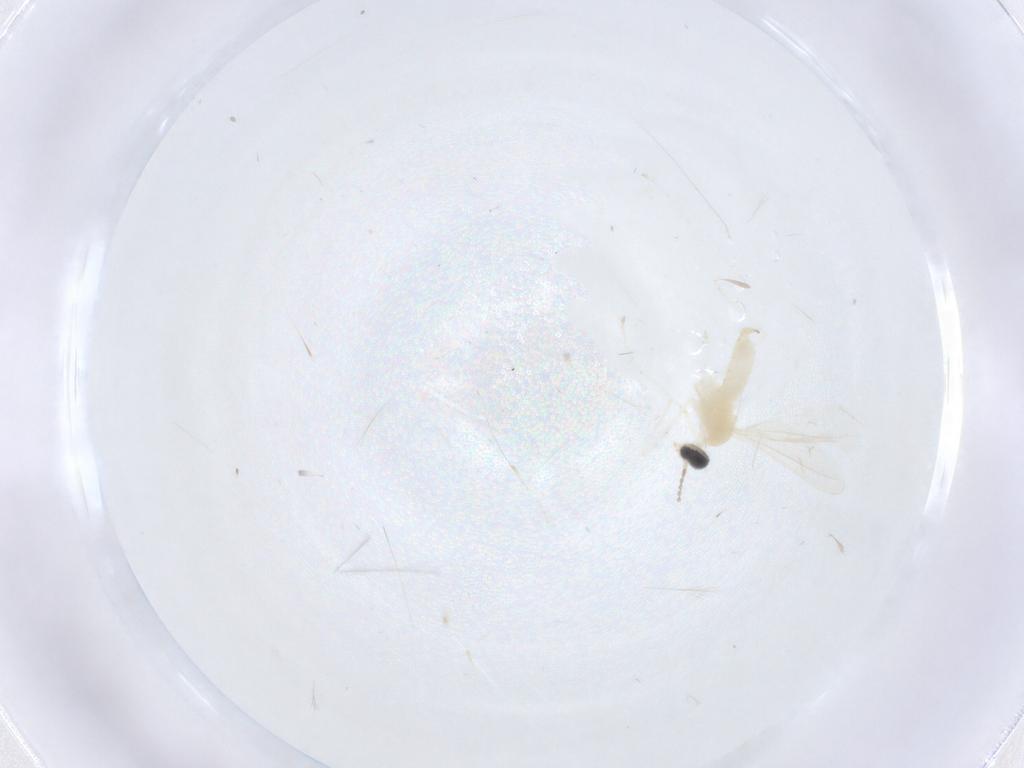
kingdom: Animalia
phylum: Arthropoda
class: Insecta
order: Diptera
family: Cecidomyiidae
